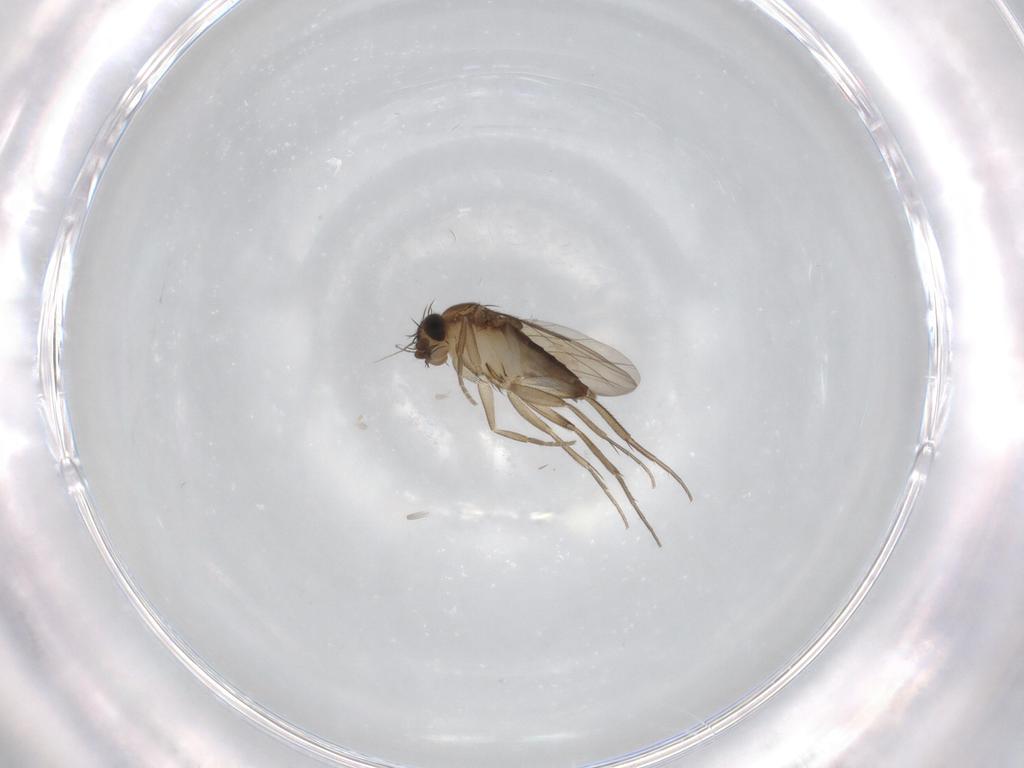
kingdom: Animalia
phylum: Arthropoda
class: Insecta
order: Diptera
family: Phoridae
